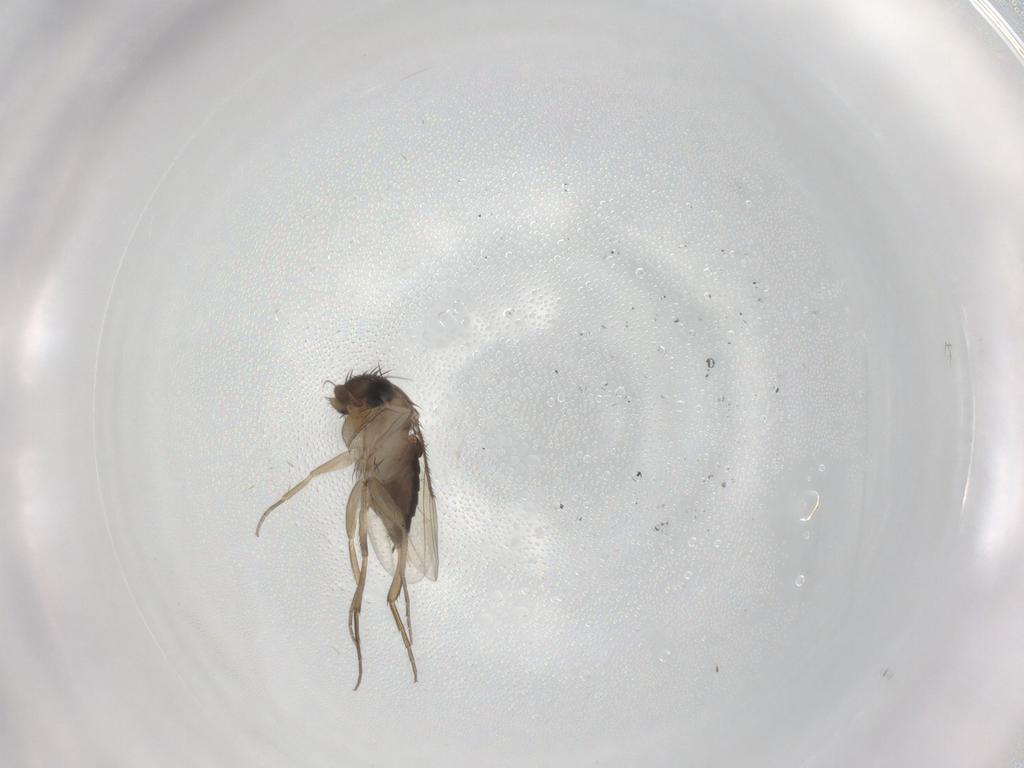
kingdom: Animalia
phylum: Arthropoda
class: Insecta
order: Diptera
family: Phoridae
